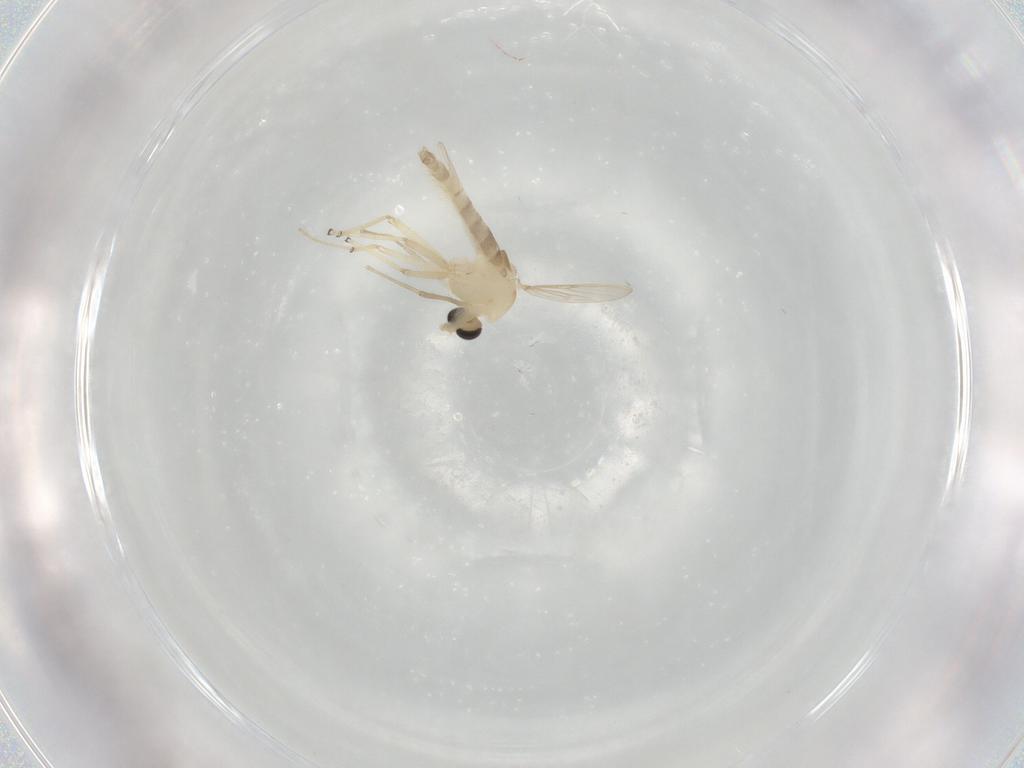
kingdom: Animalia
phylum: Arthropoda
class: Insecta
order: Diptera
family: Chironomidae
